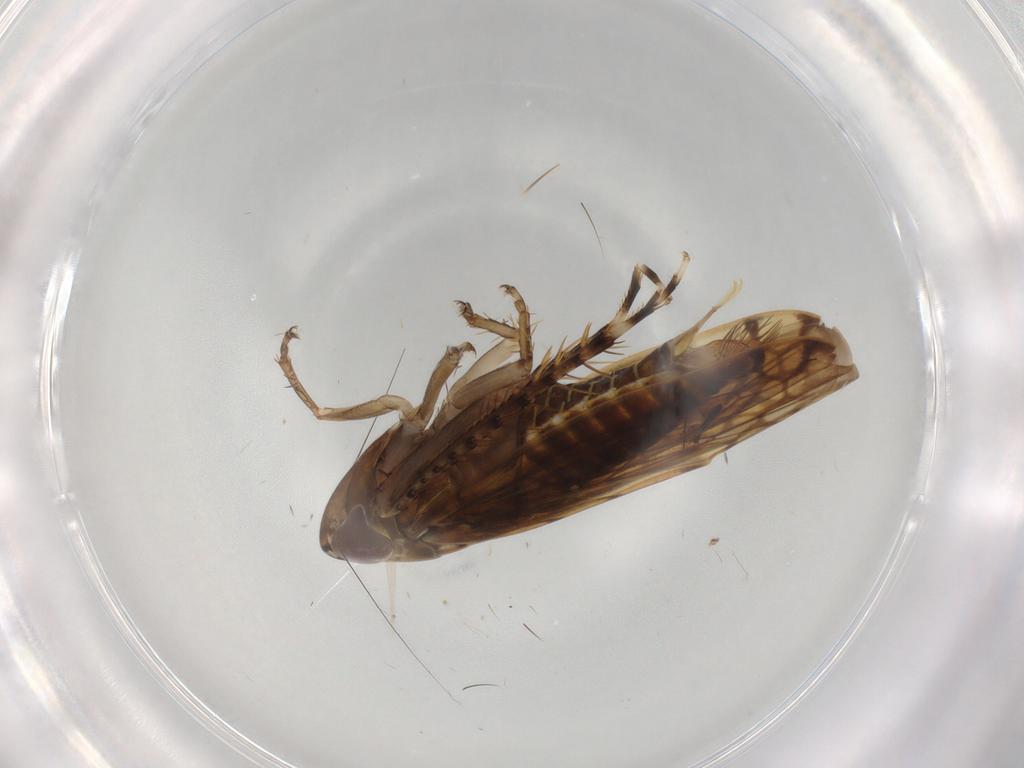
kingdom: Animalia
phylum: Arthropoda
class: Insecta
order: Hemiptera
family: Cicadellidae
